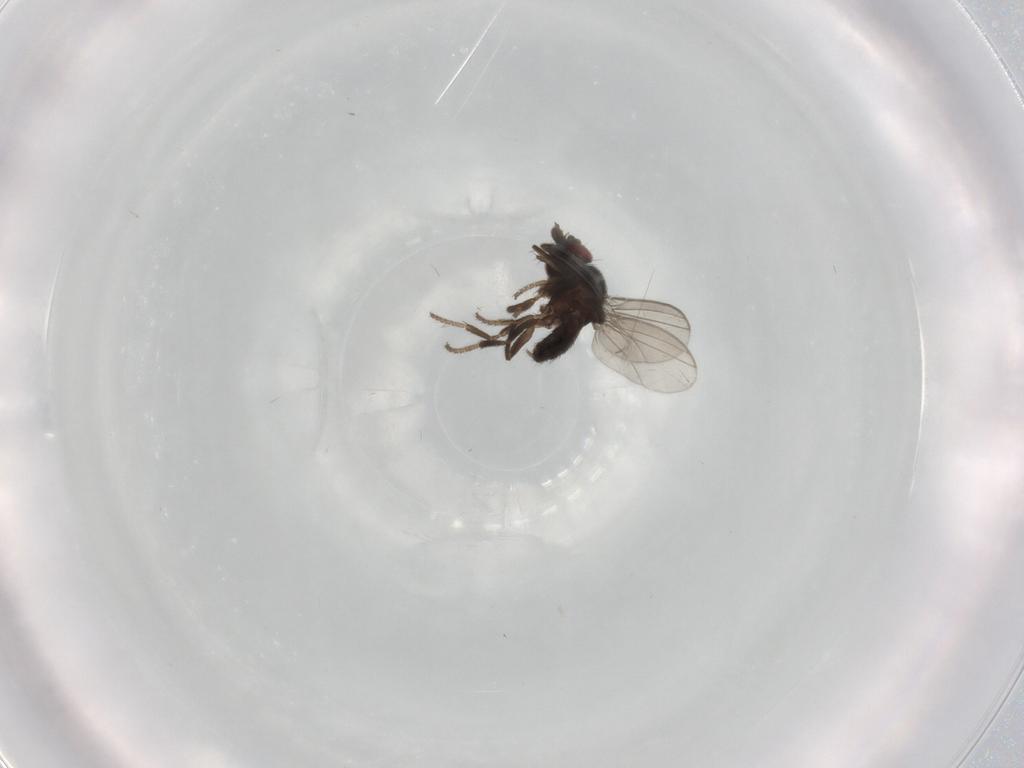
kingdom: Animalia
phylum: Arthropoda
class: Insecta
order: Diptera
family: Milichiidae
